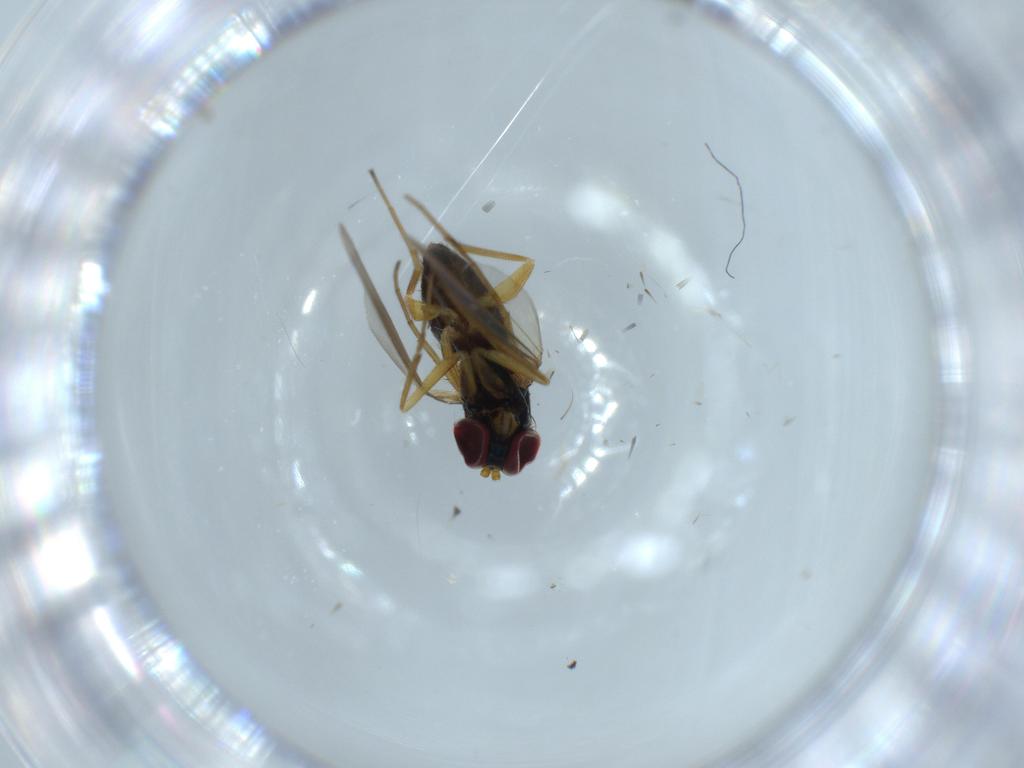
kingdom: Animalia
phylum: Arthropoda
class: Insecta
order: Diptera
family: Dolichopodidae
